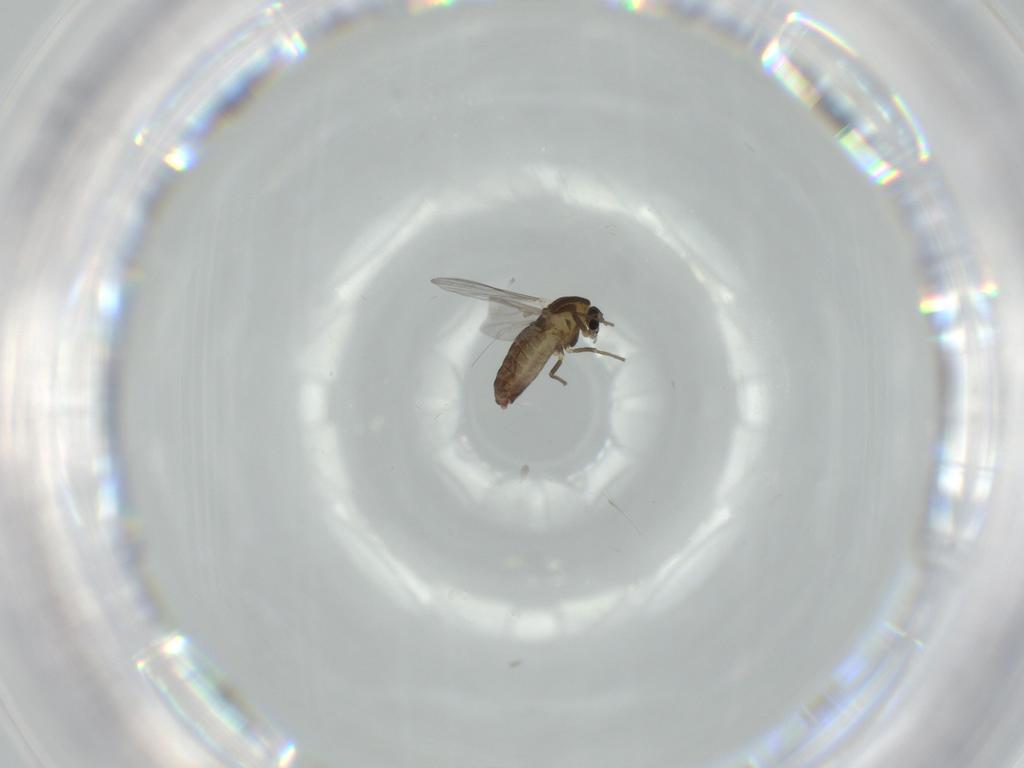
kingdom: Animalia
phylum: Arthropoda
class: Insecta
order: Diptera
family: Chironomidae
